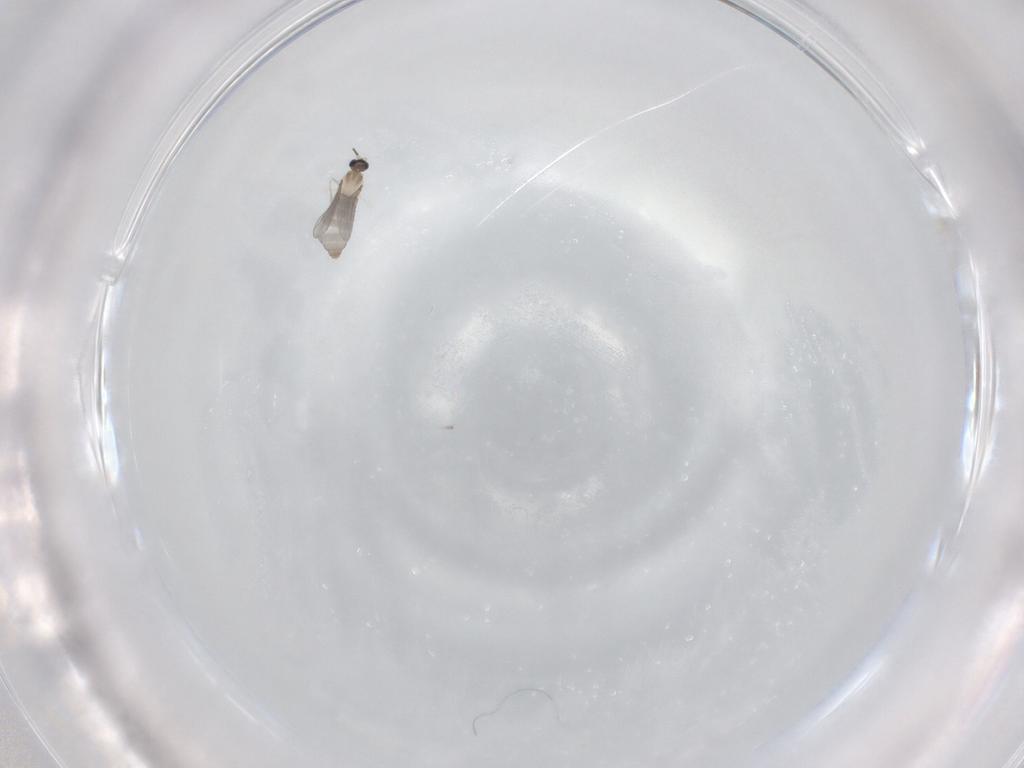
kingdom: Animalia
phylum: Arthropoda
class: Insecta
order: Diptera
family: Cecidomyiidae
